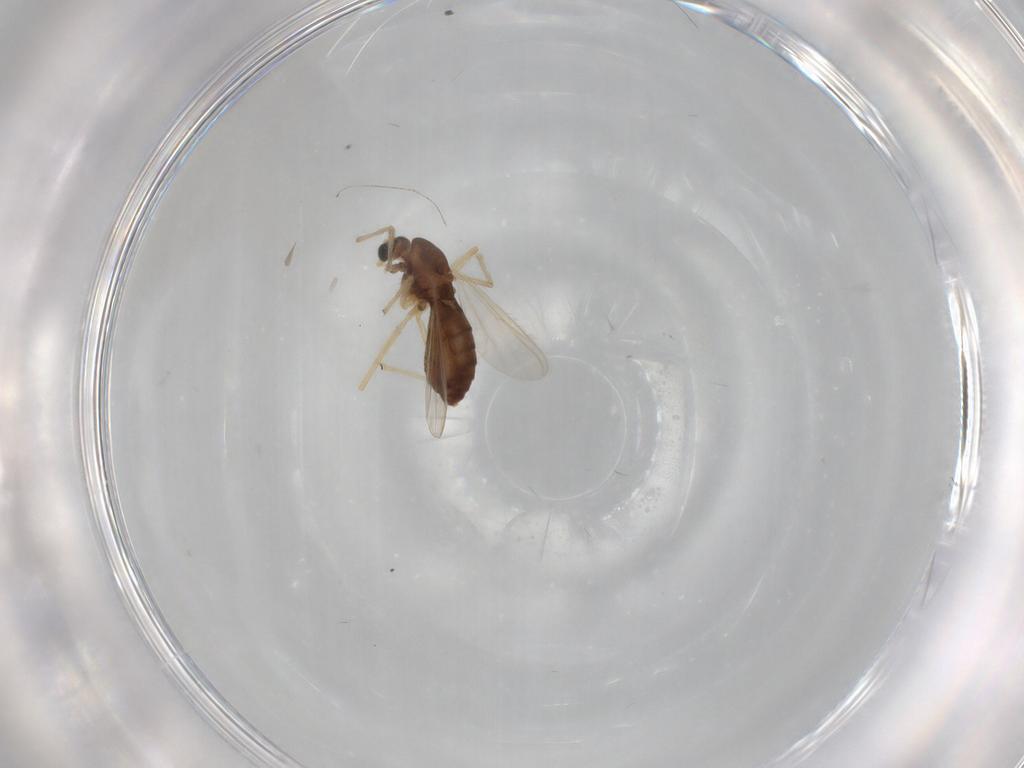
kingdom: Animalia
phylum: Arthropoda
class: Insecta
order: Diptera
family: Chironomidae
